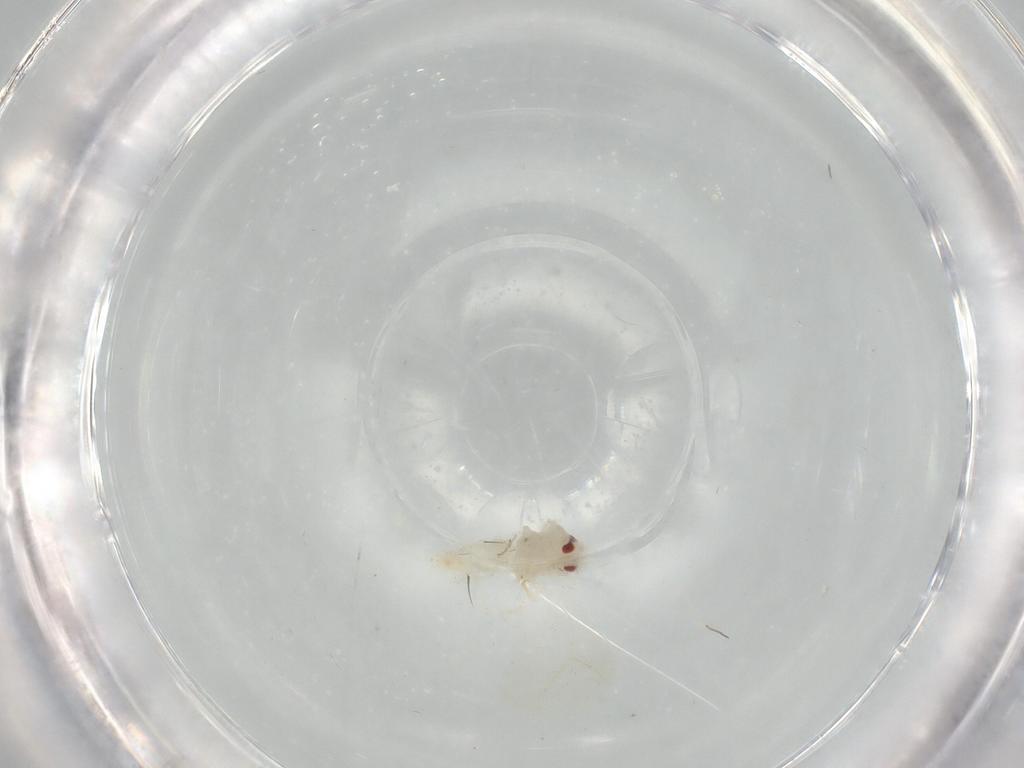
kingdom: Animalia
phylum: Arthropoda
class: Insecta
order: Hemiptera
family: Aleyrodidae
